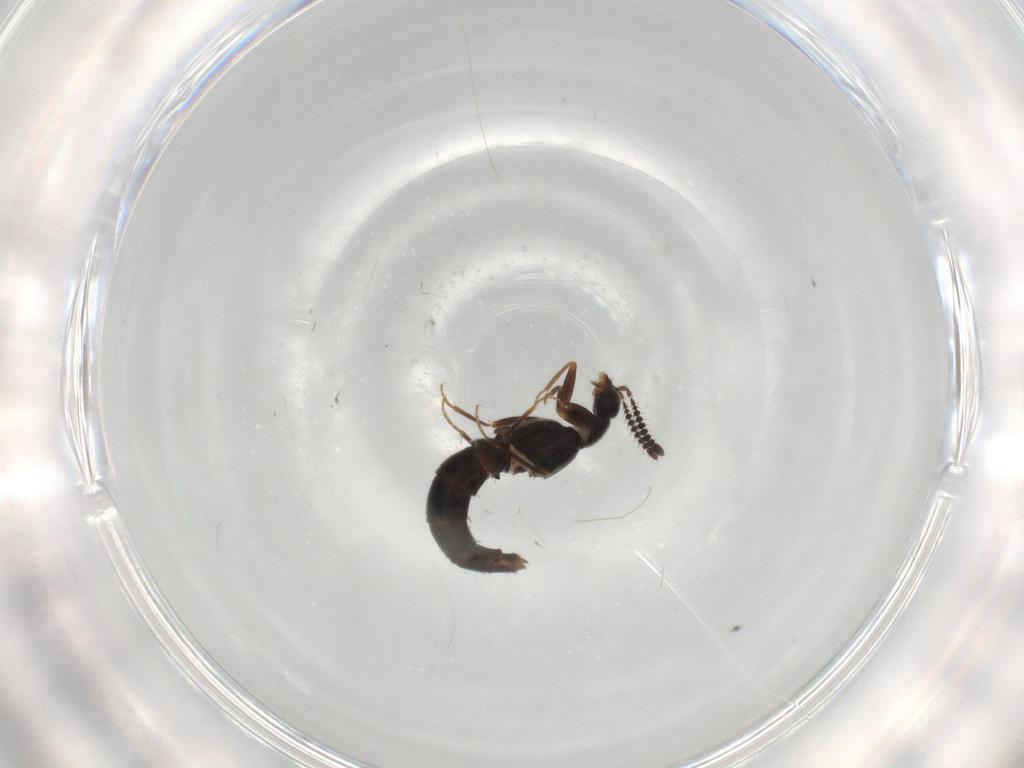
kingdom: Animalia
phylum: Arthropoda
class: Insecta
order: Coleoptera
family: Staphylinidae
